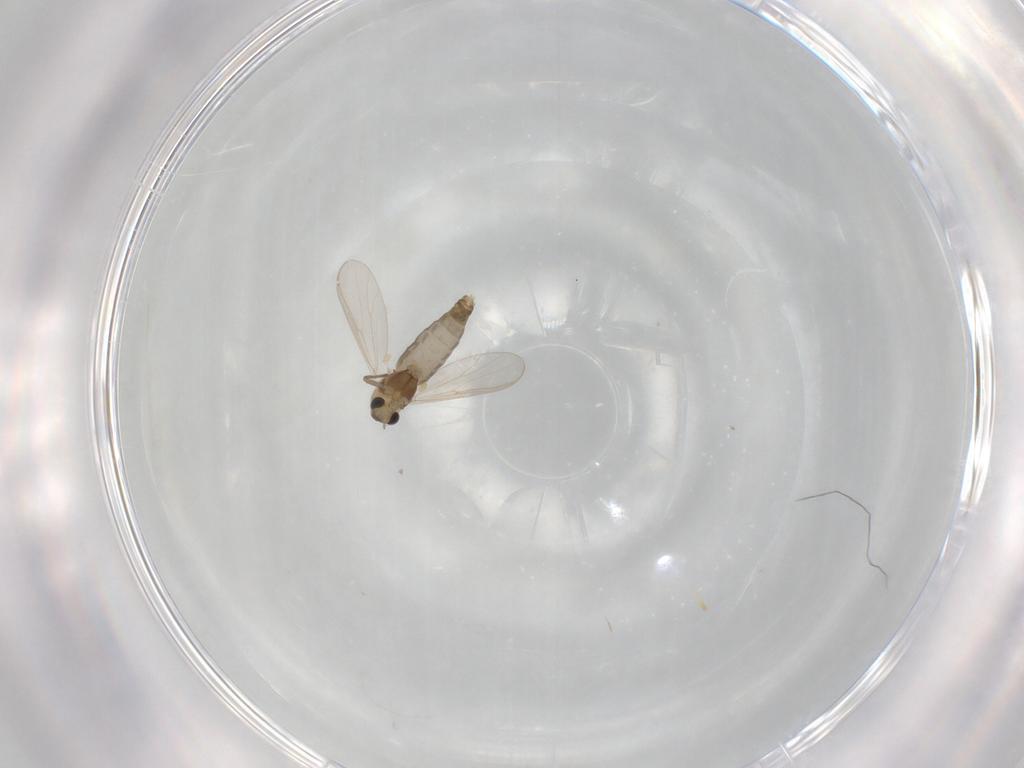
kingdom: Animalia
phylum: Arthropoda
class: Insecta
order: Diptera
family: Chironomidae
